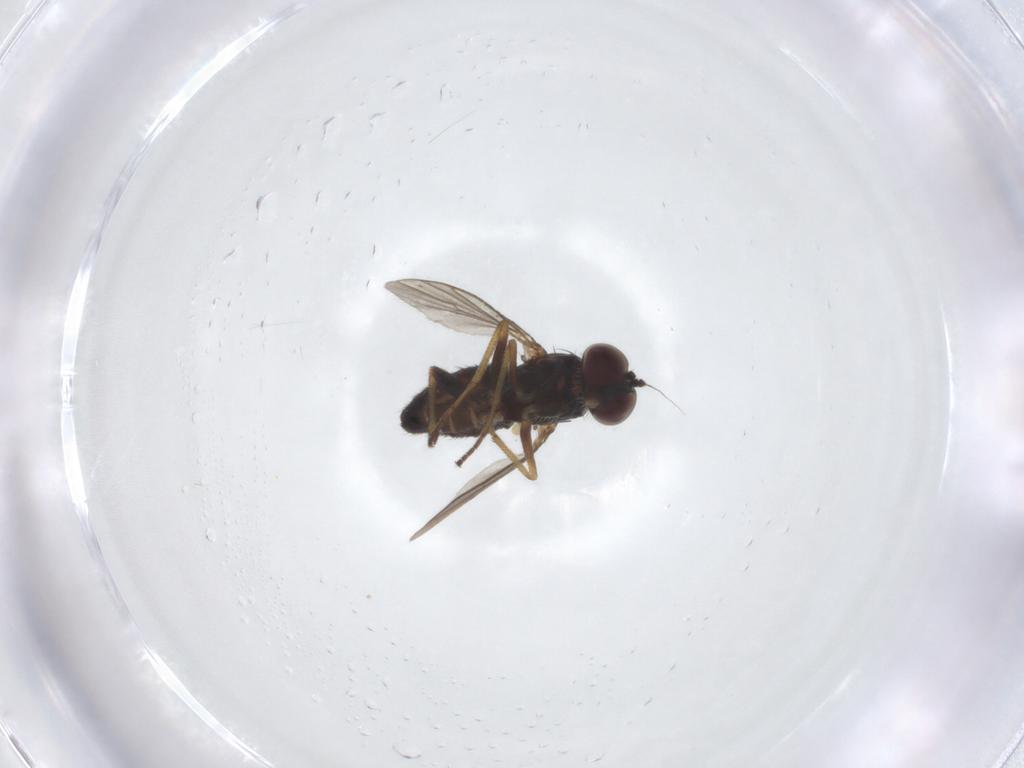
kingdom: Animalia
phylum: Arthropoda
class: Insecta
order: Diptera
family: Dolichopodidae
